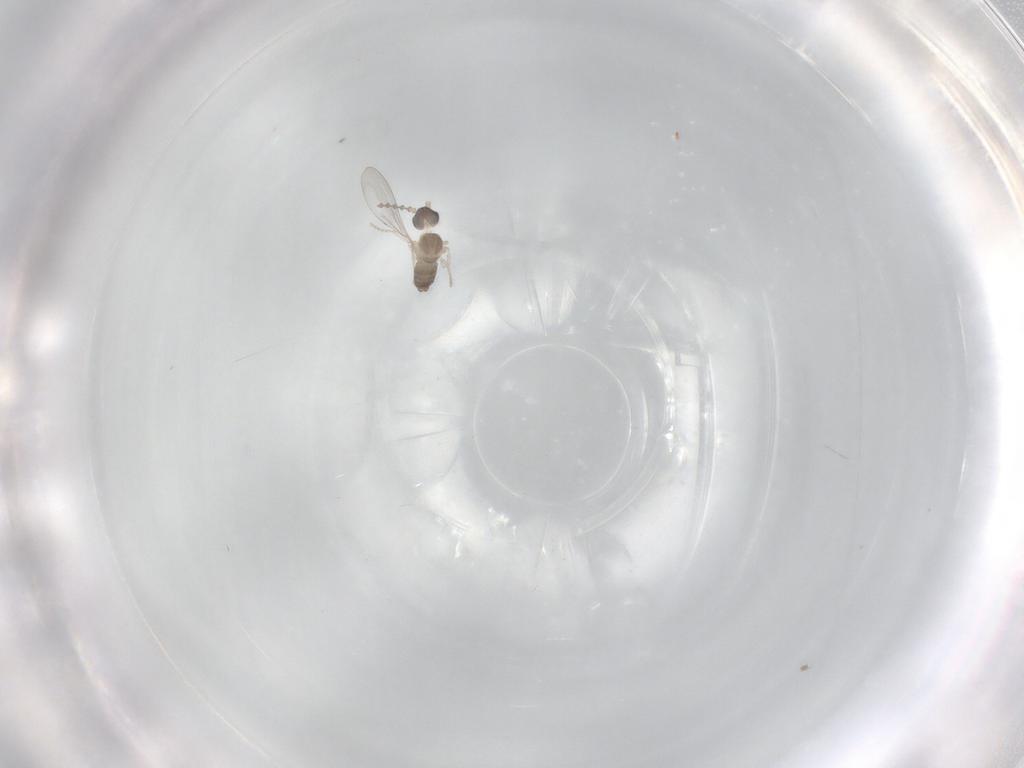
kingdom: Animalia
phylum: Arthropoda
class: Insecta
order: Diptera
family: Cecidomyiidae
